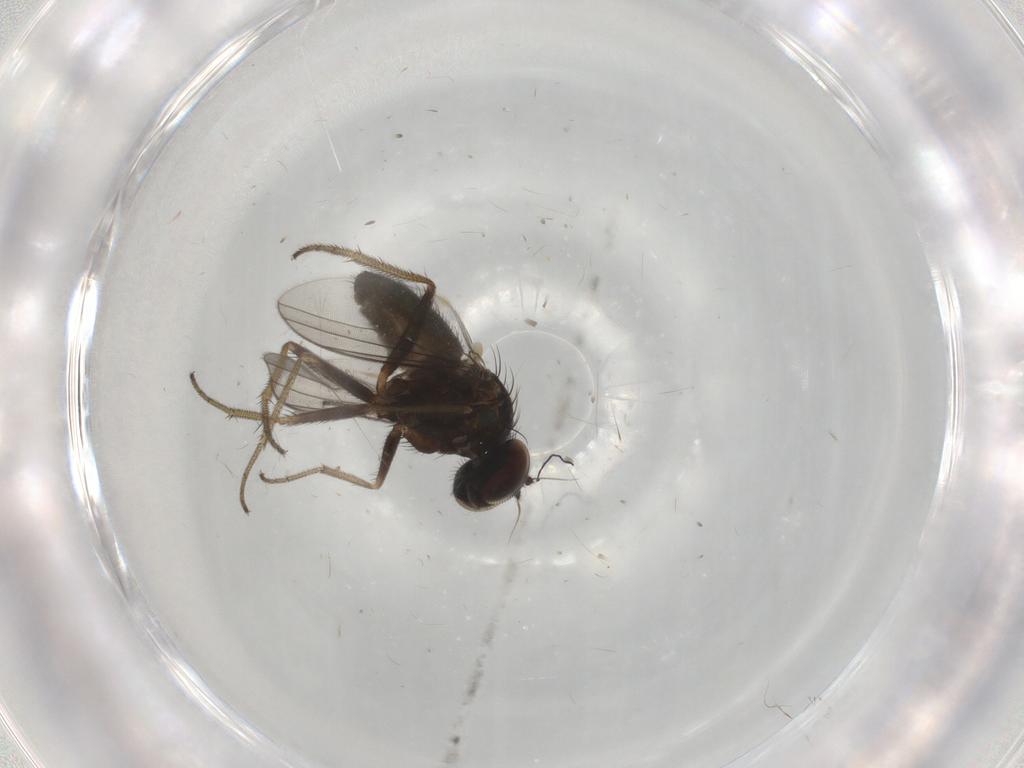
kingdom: Animalia
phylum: Arthropoda
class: Insecta
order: Diptera
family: Dolichopodidae
